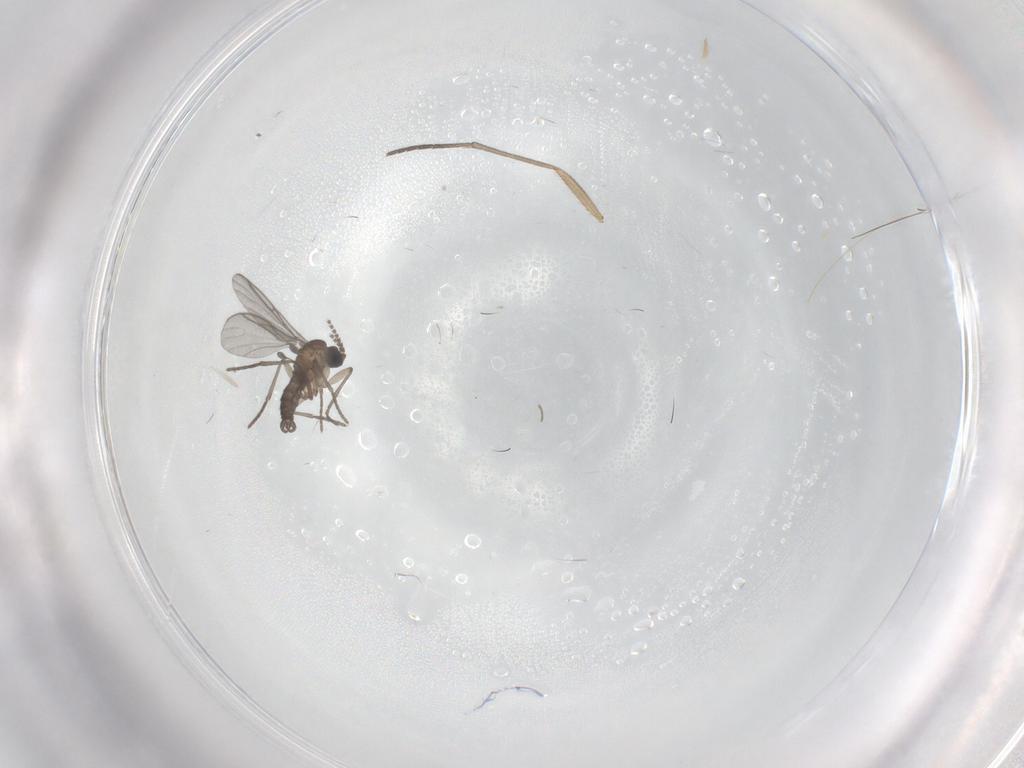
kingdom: Animalia
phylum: Arthropoda
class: Insecta
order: Diptera
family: Sciaridae
